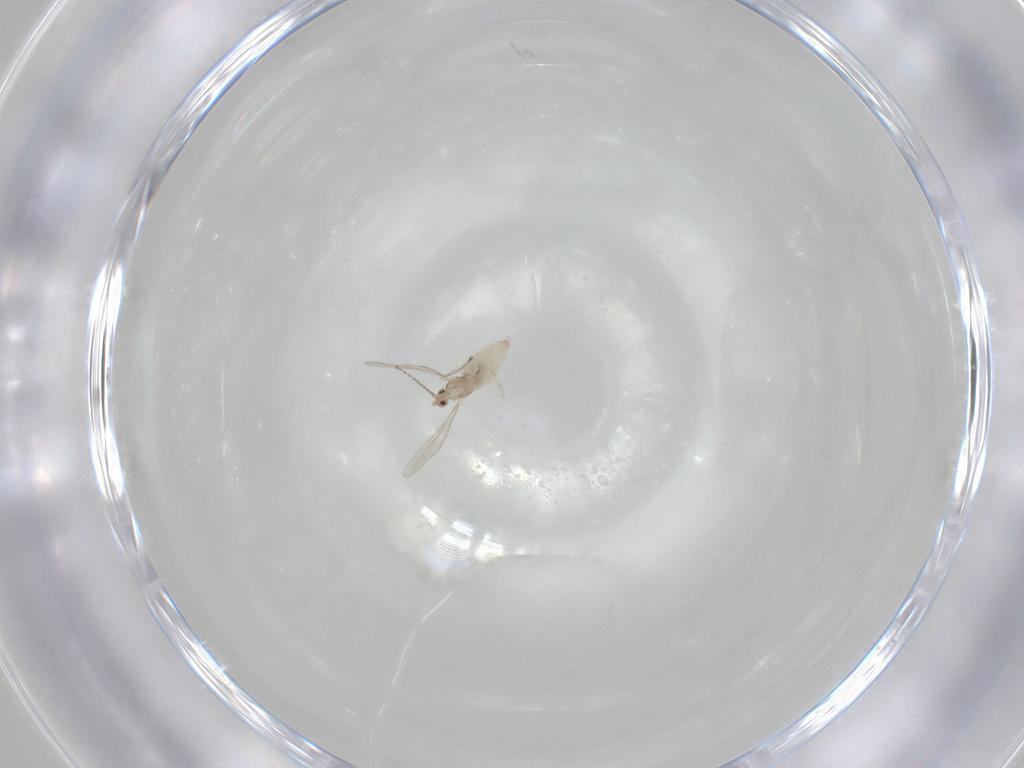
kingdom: Animalia
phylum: Arthropoda
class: Insecta
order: Diptera
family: Cecidomyiidae
